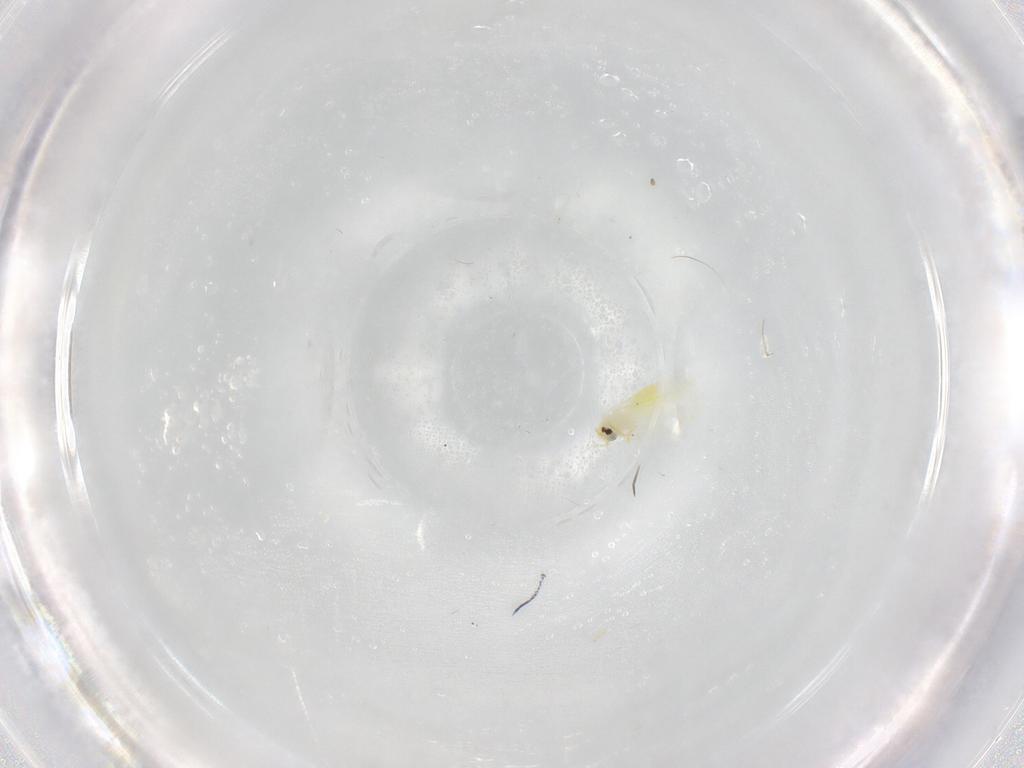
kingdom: Animalia
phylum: Arthropoda
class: Insecta
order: Hemiptera
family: Aleyrodidae
